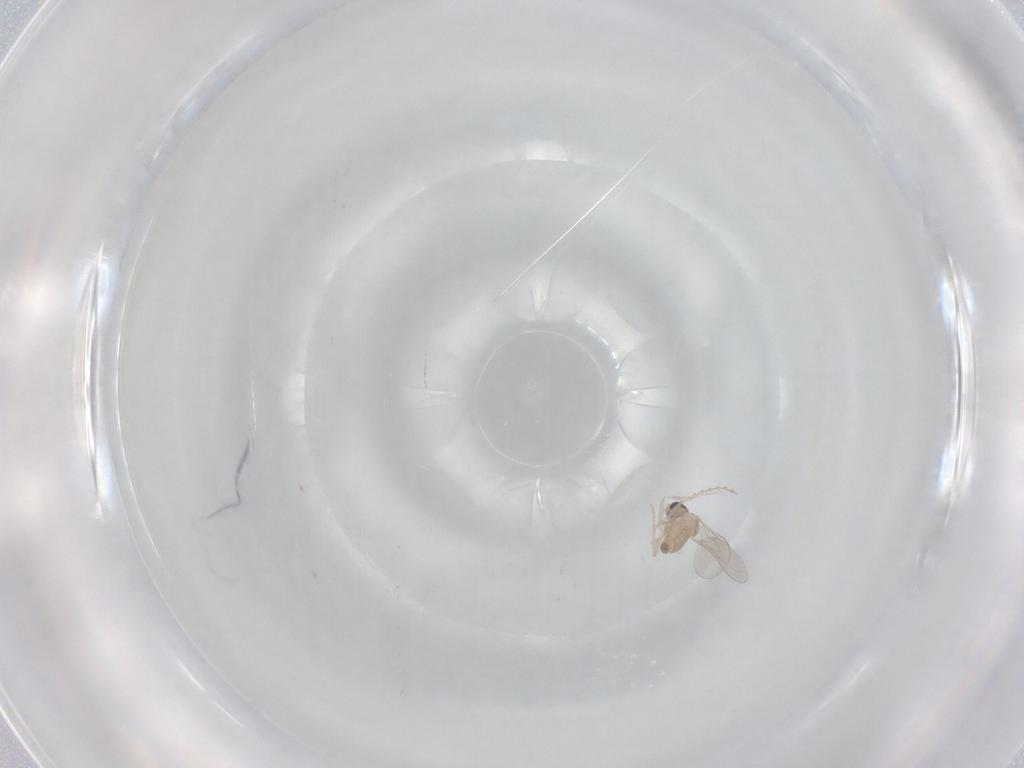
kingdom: Animalia
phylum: Arthropoda
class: Insecta
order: Diptera
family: Cecidomyiidae
